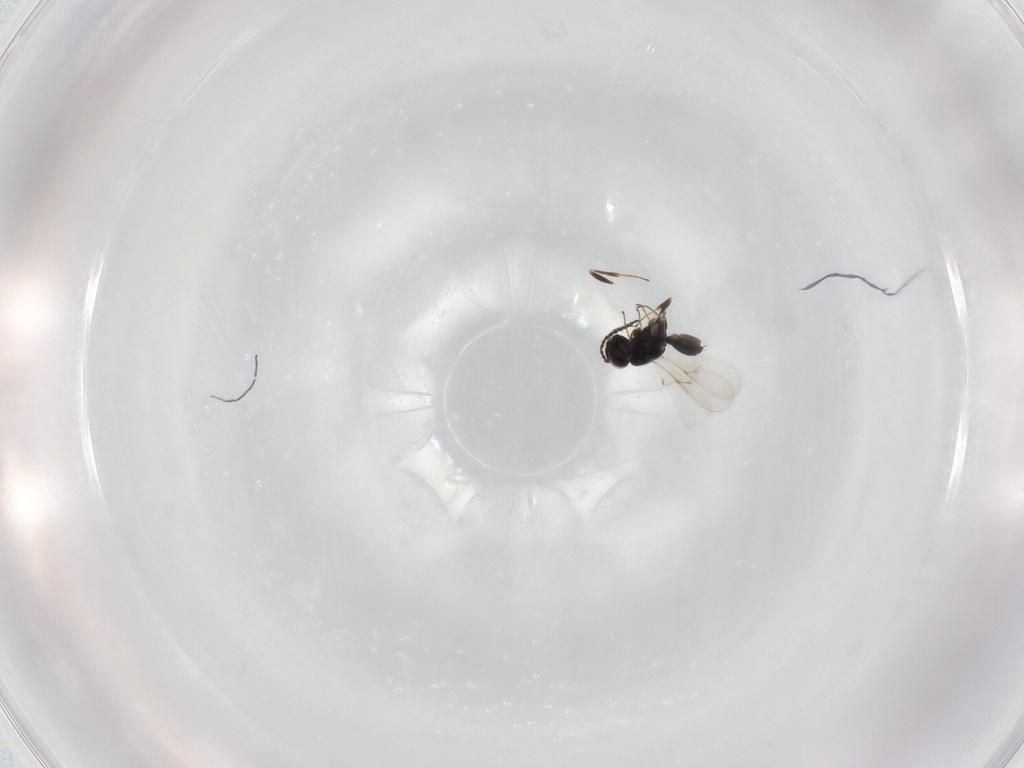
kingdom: Animalia
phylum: Arthropoda
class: Insecta
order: Hymenoptera
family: Scelionidae
